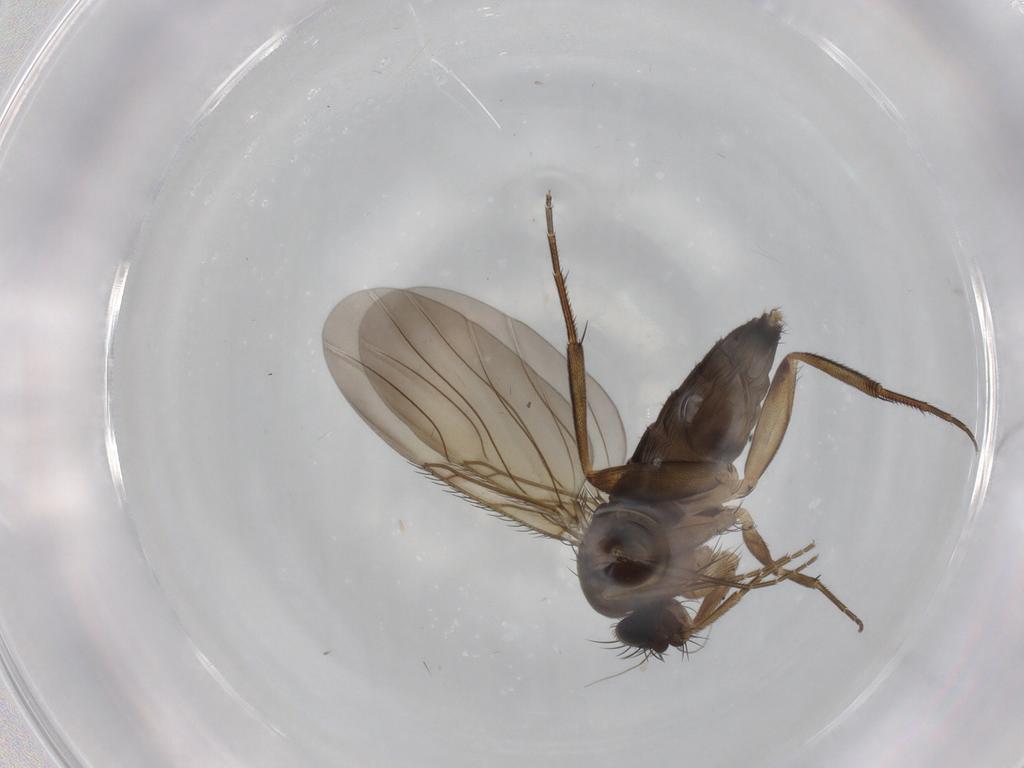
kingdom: Animalia
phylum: Arthropoda
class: Insecta
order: Diptera
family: Phoridae
